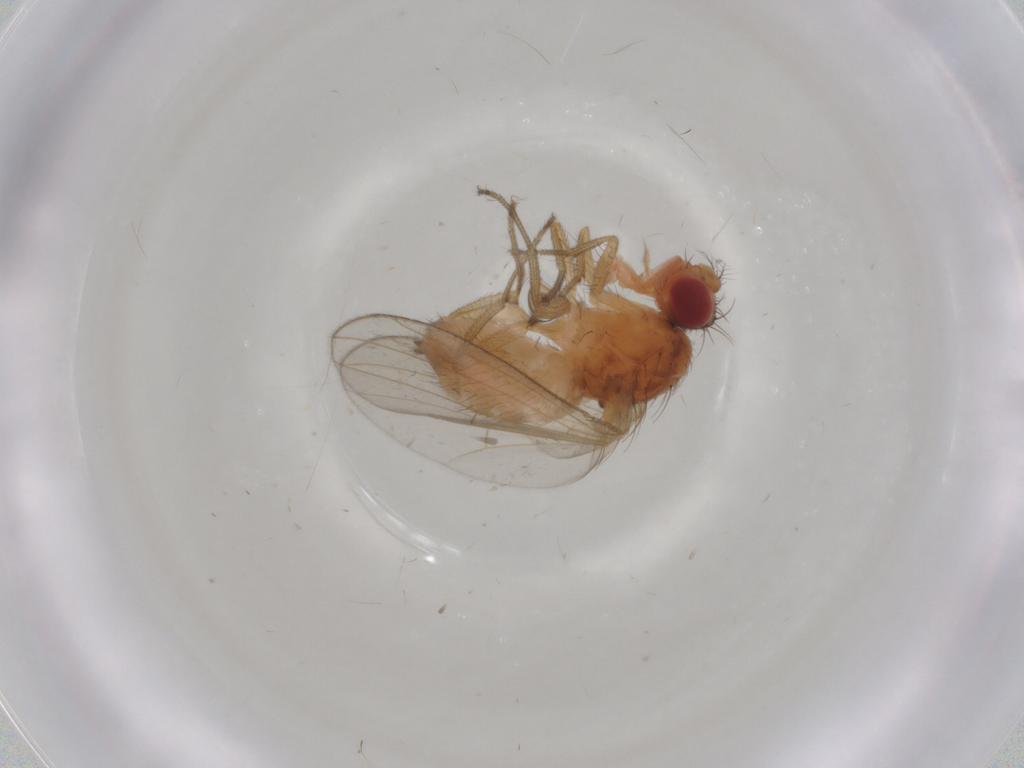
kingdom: Animalia
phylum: Arthropoda
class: Insecta
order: Diptera
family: Drosophilidae
